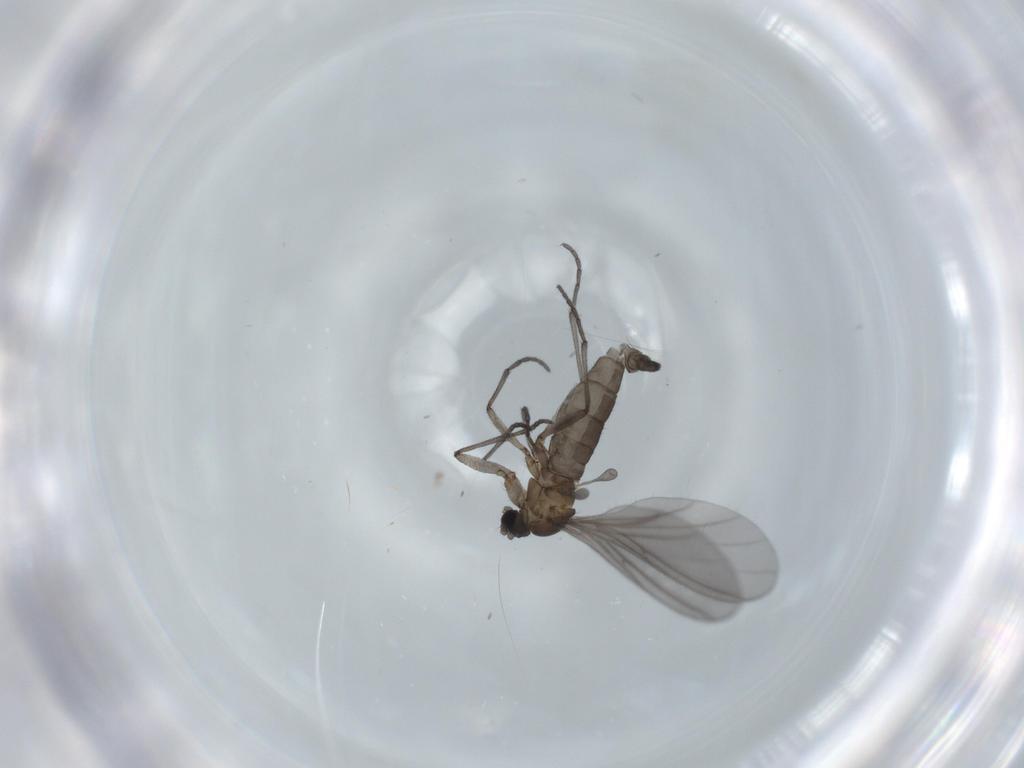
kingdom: Animalia
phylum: Arthropoda
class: Insecta
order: Diptera
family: Sciaridae
